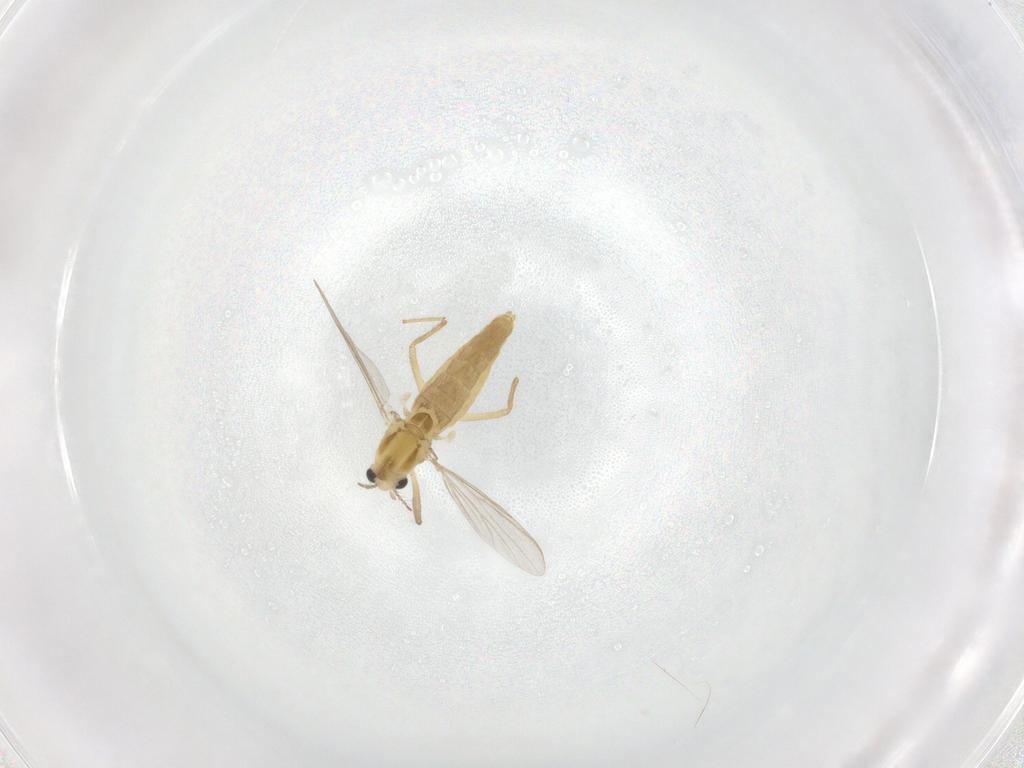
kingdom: Animalia
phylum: Arthropoda
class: Insecta
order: Diptera
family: Chironomidae
